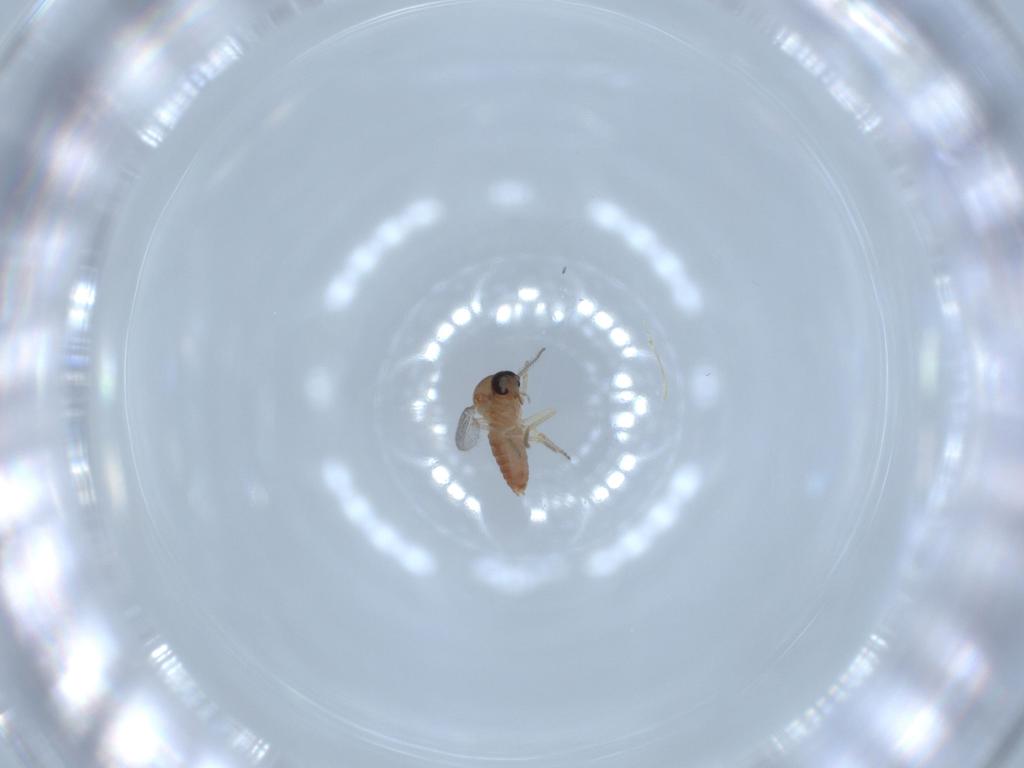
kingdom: Animalia
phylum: Arthropoda
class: Insecta
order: Diptera
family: Ceratopogonidae
